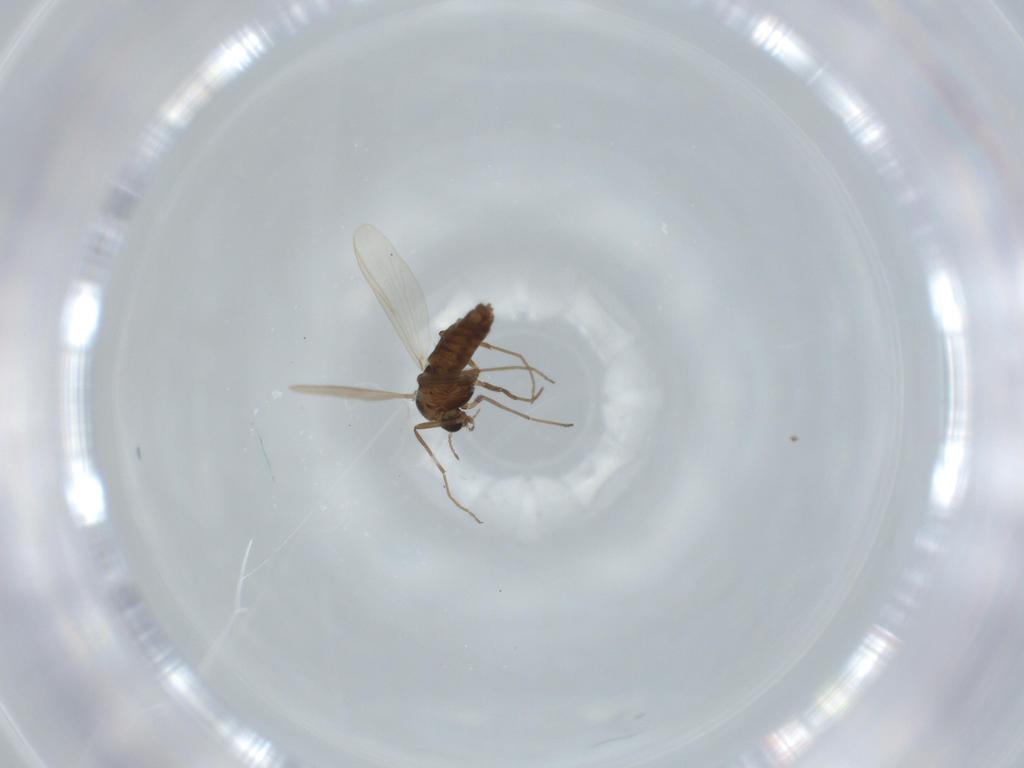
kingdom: Animalia
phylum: Arthropoda
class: Insecta
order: Diptera
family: Chironomidae
